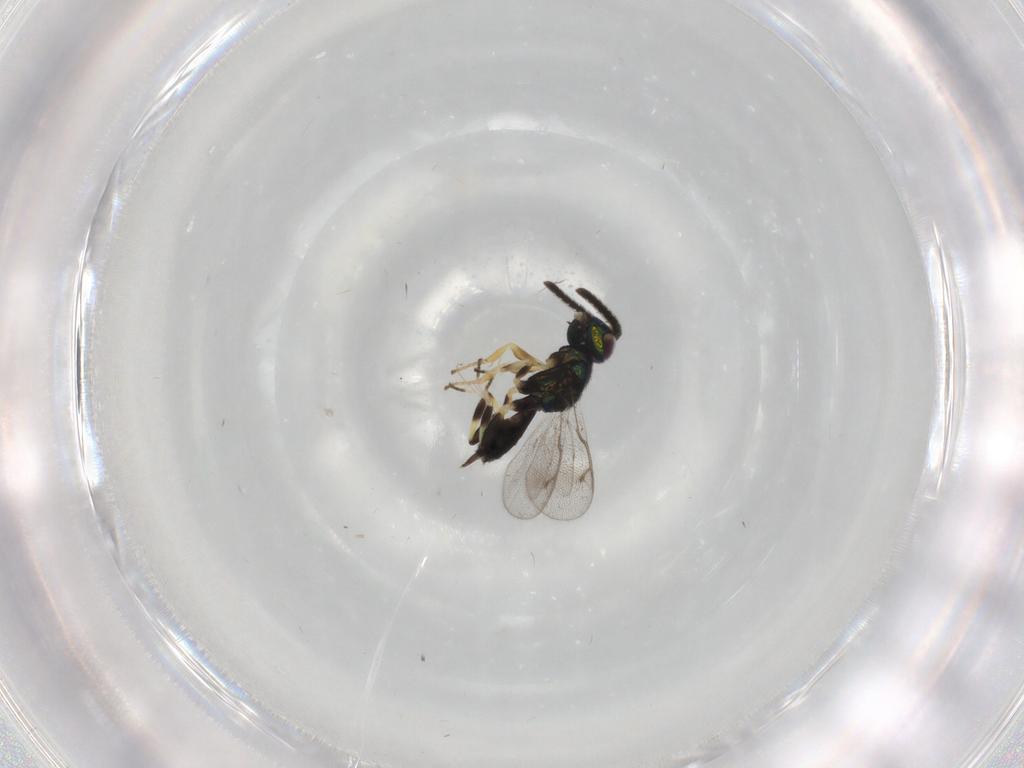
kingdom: Animalia
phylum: Arthropoda
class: Insecta
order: Hymenoptera
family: Eupelmidae
